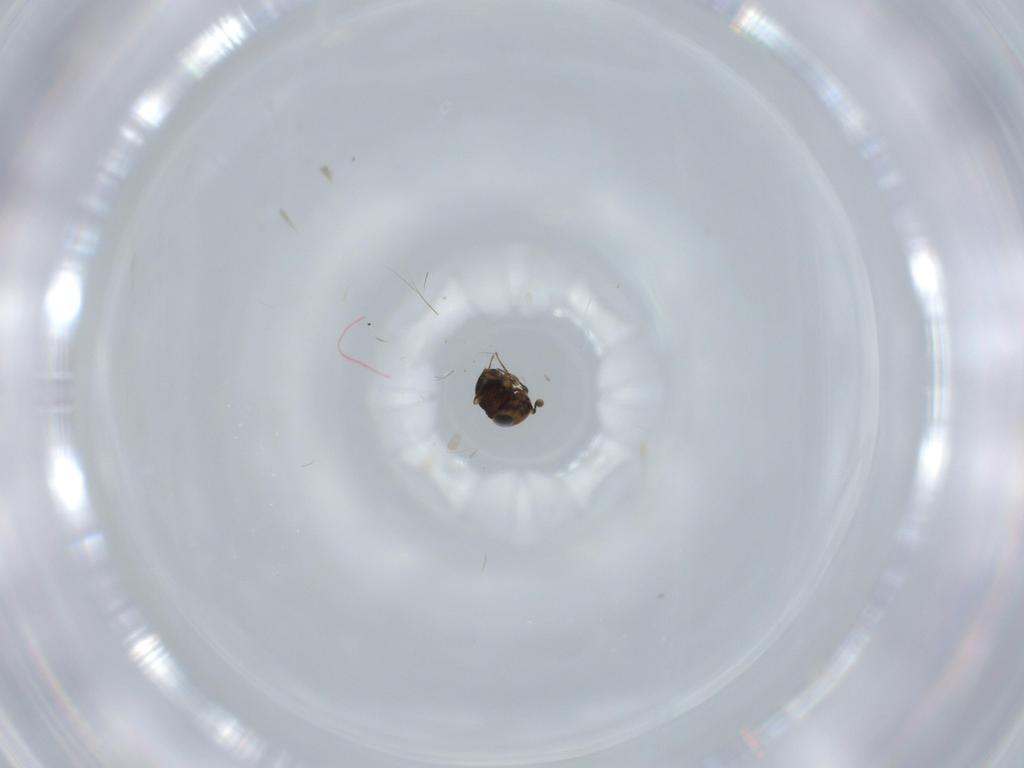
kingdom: Animalia
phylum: Arthropoda
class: Insecta
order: Hymenoptera
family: Scelionidae
